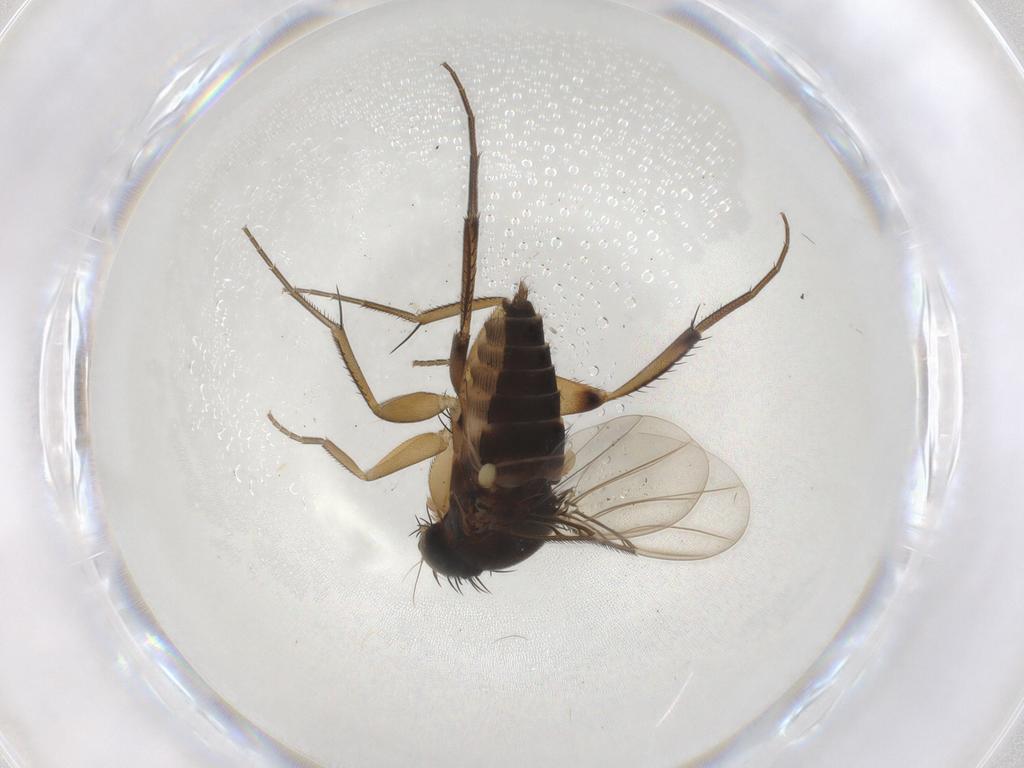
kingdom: Animalia
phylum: Arthropoda
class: Insecta
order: Diptera
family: Phoridae
